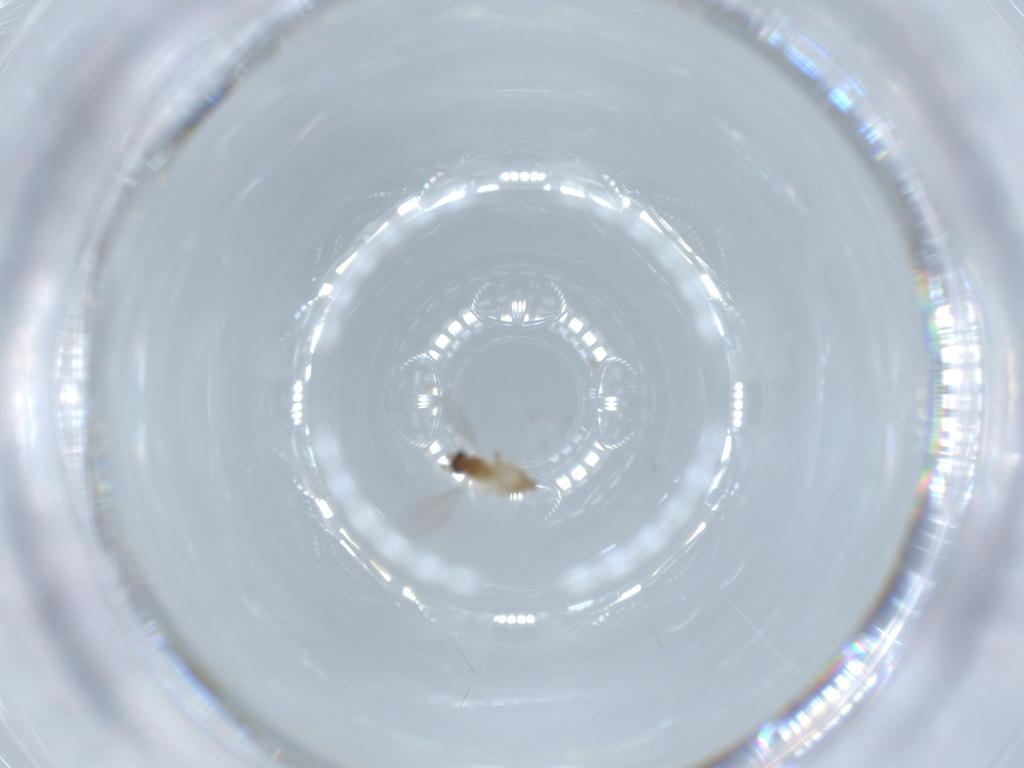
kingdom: Animalia
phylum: Arthropoda
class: Insecta
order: Diptera
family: Cecidomyiidae
